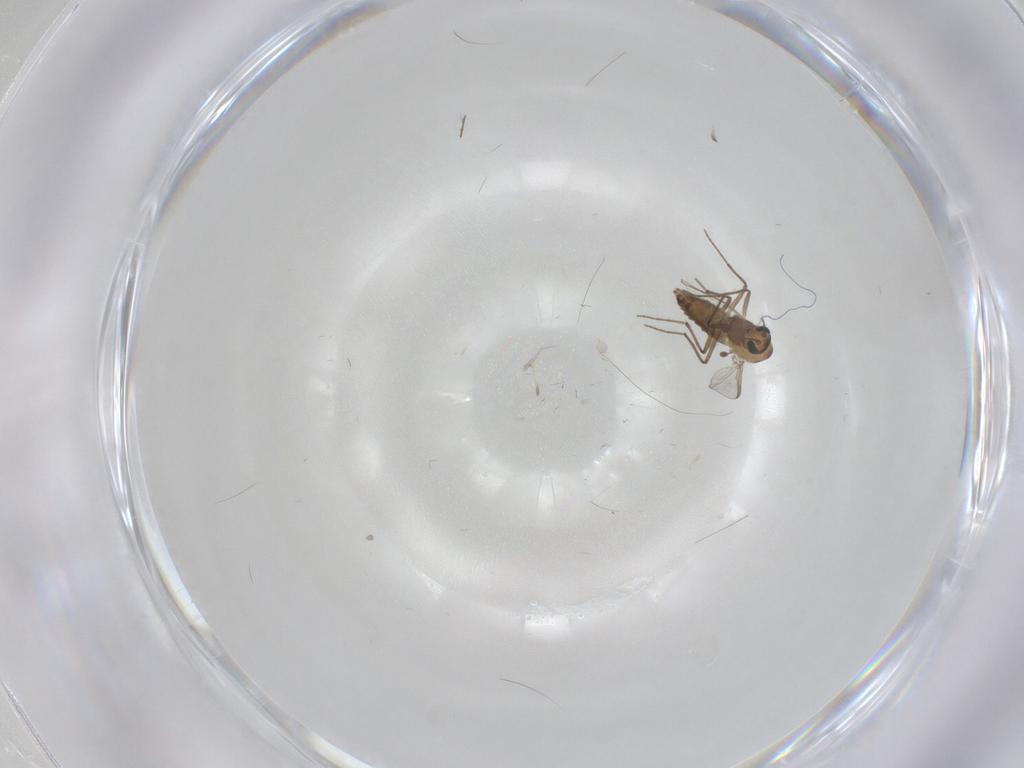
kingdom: Animalia
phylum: Arthropoda
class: Insecta
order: Diptera
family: Chironomidae
